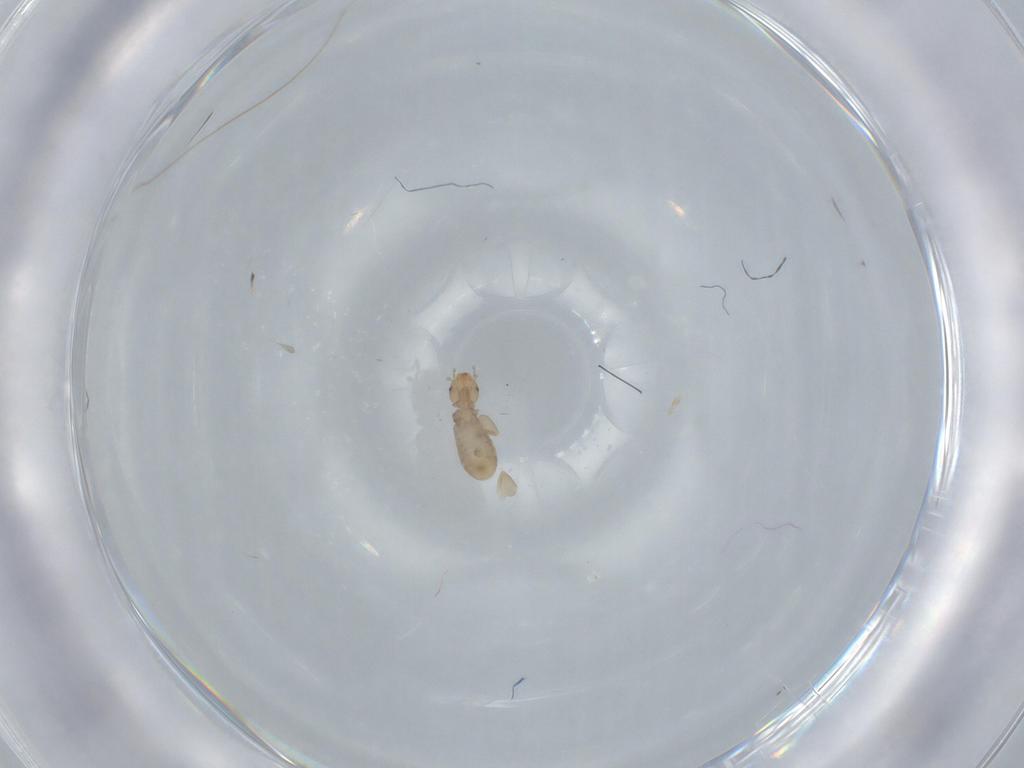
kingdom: Animalia
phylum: Arthropoda
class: Insecta
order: Psocodea
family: Liposcelididae
